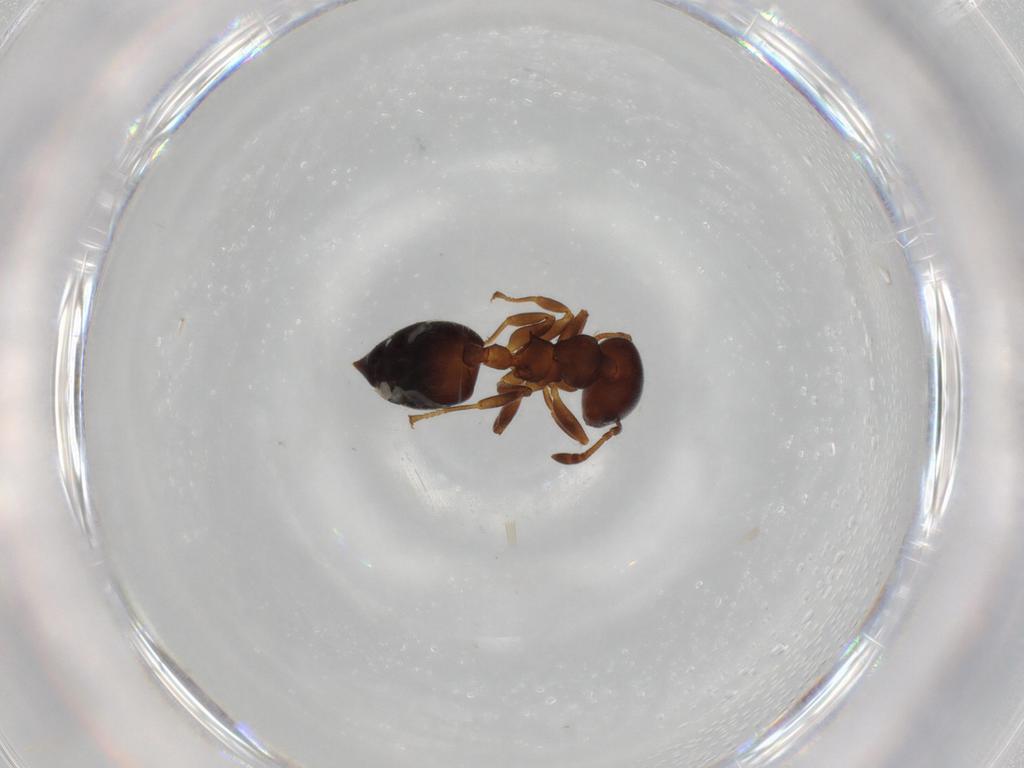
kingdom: Animalia
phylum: Arthropoda
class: Insecta
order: Hymenoptera
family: Formicidae
